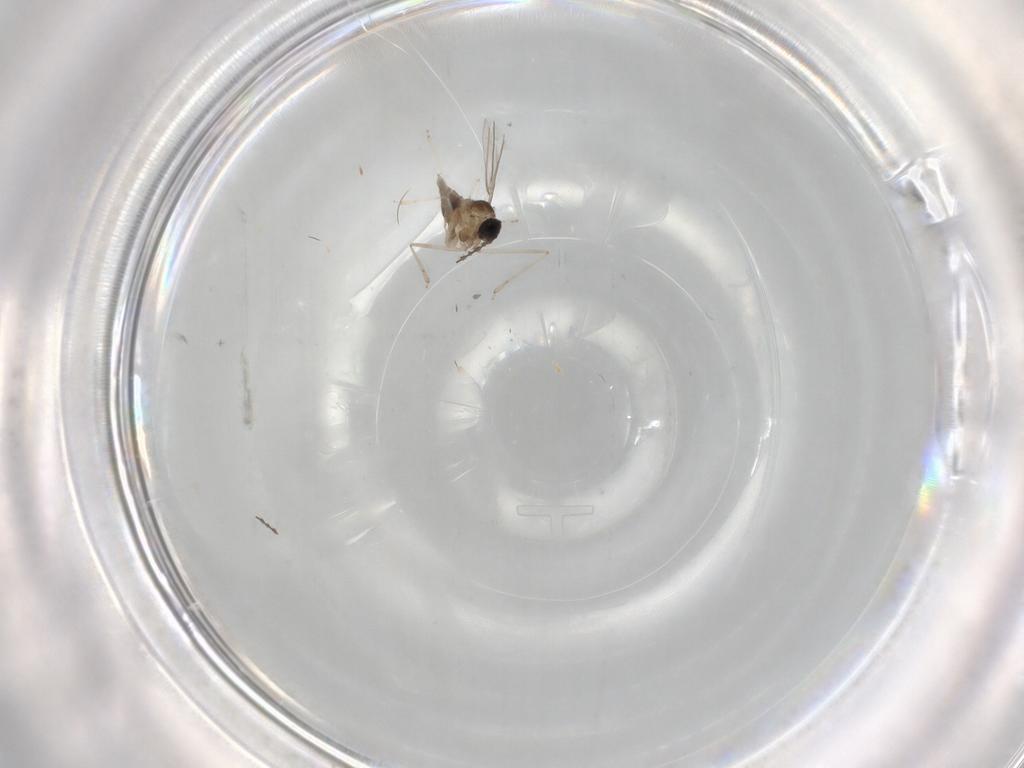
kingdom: Animalia
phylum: Arthropoda
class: Insecta
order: Diptera
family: Cecidomyiidae
